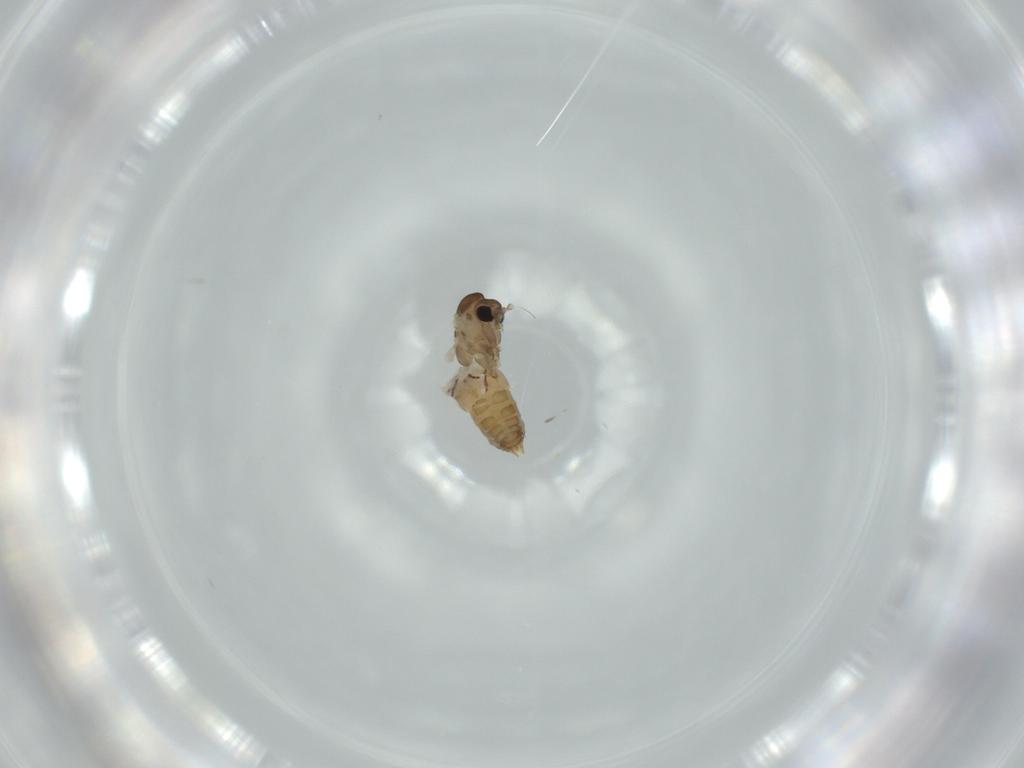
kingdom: Animalia
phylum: Arthropoda
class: Insecta
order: Diptera
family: Sciaridae
